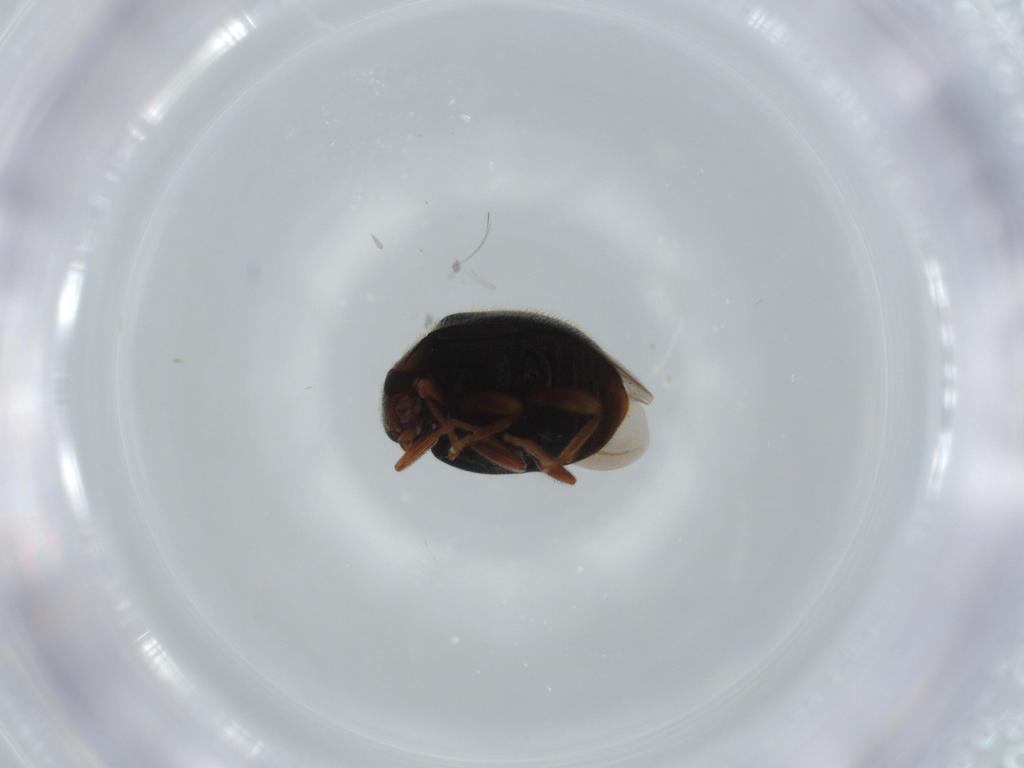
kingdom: Animalia
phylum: Arthropoda
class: Insecta
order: Coleoptera
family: Coccinellidae
